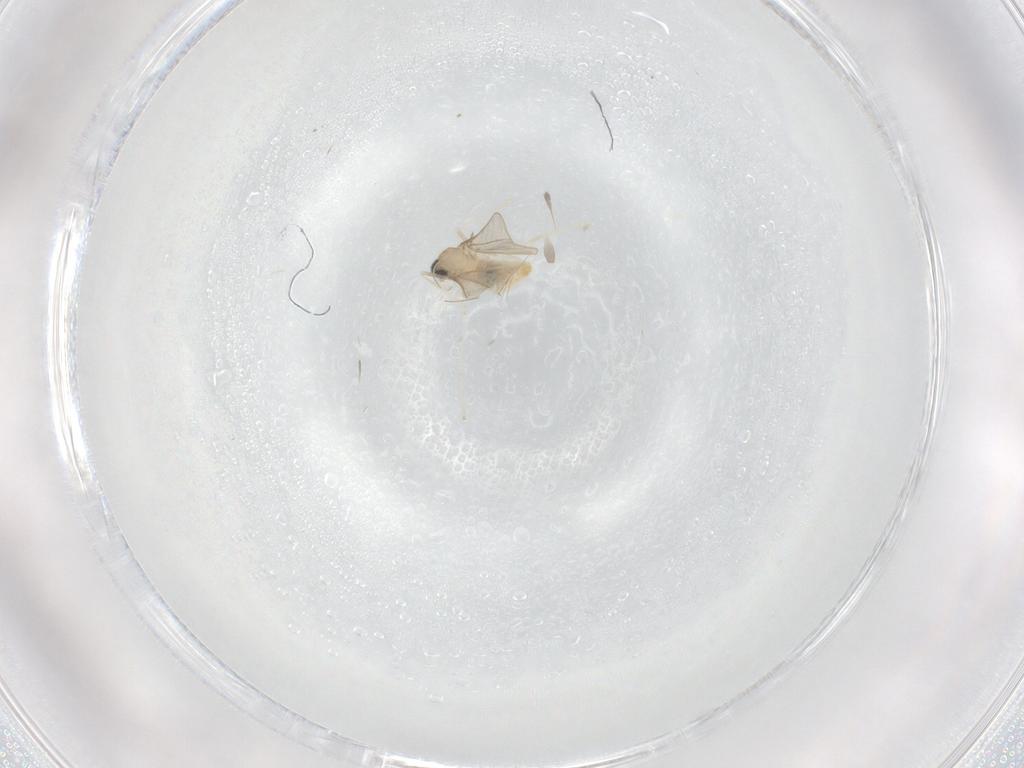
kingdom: Animalia
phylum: Arthropoda
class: Insecta
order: Diptera
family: Cecidomyiidae
